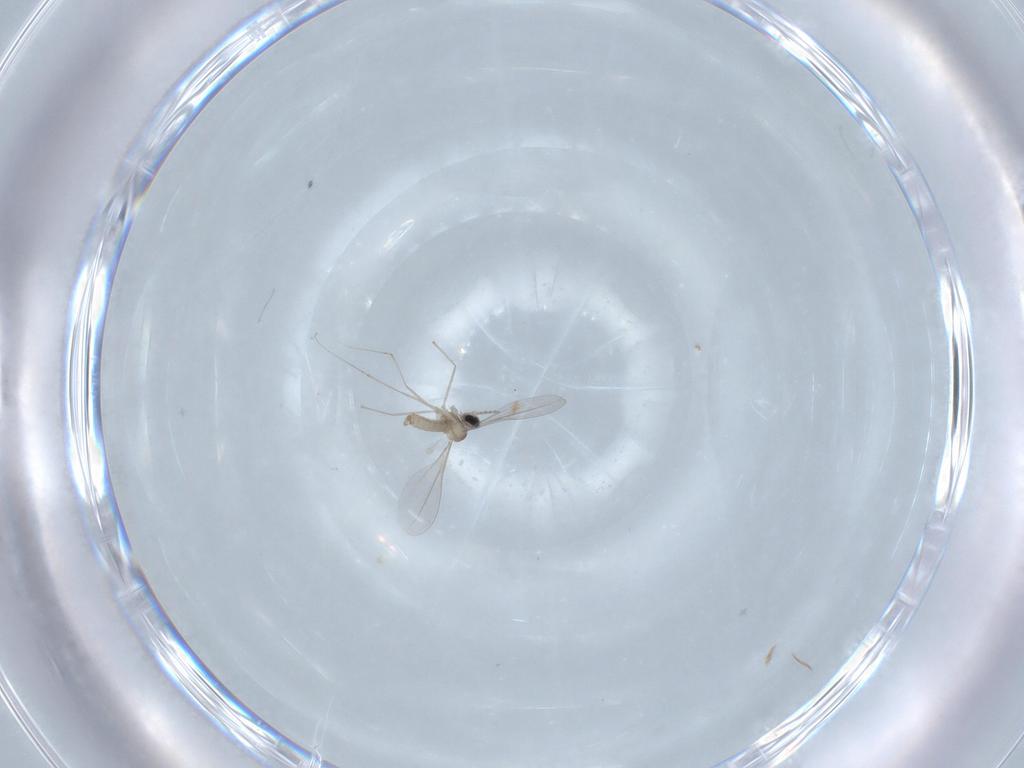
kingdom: Animalia
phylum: Arthropoda
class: Insecta
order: Diptera
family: Cecidomyiidae
